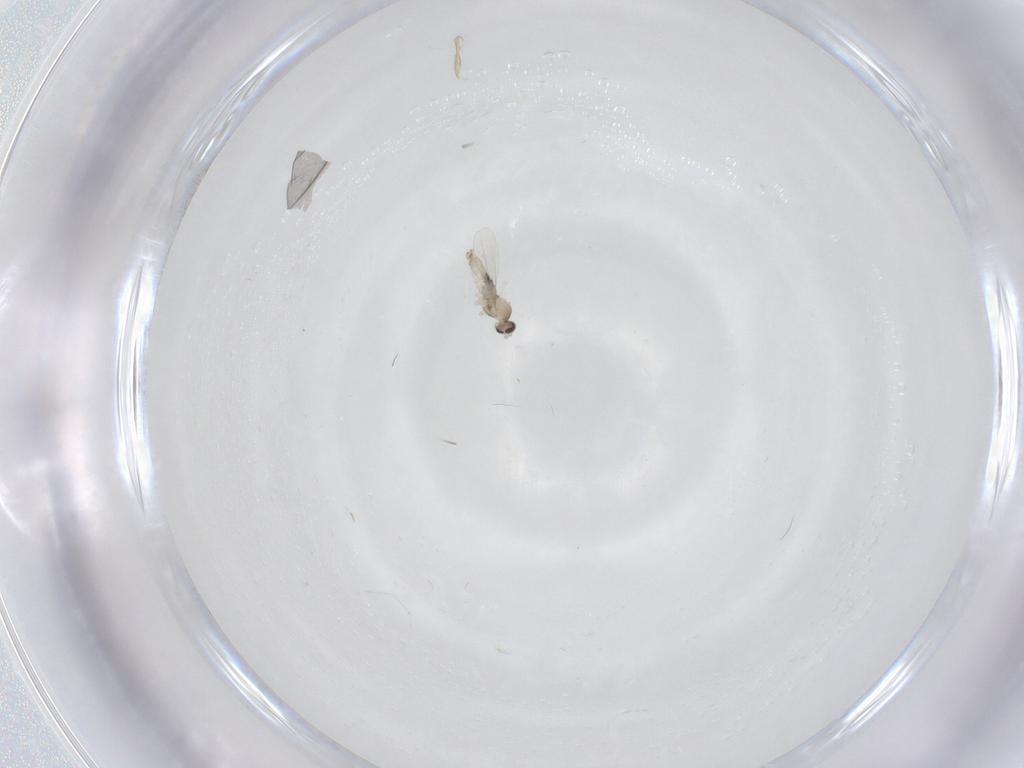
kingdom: Animalia
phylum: Arthropoda
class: Insecta
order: Diptera
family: Cecidomyiidae
